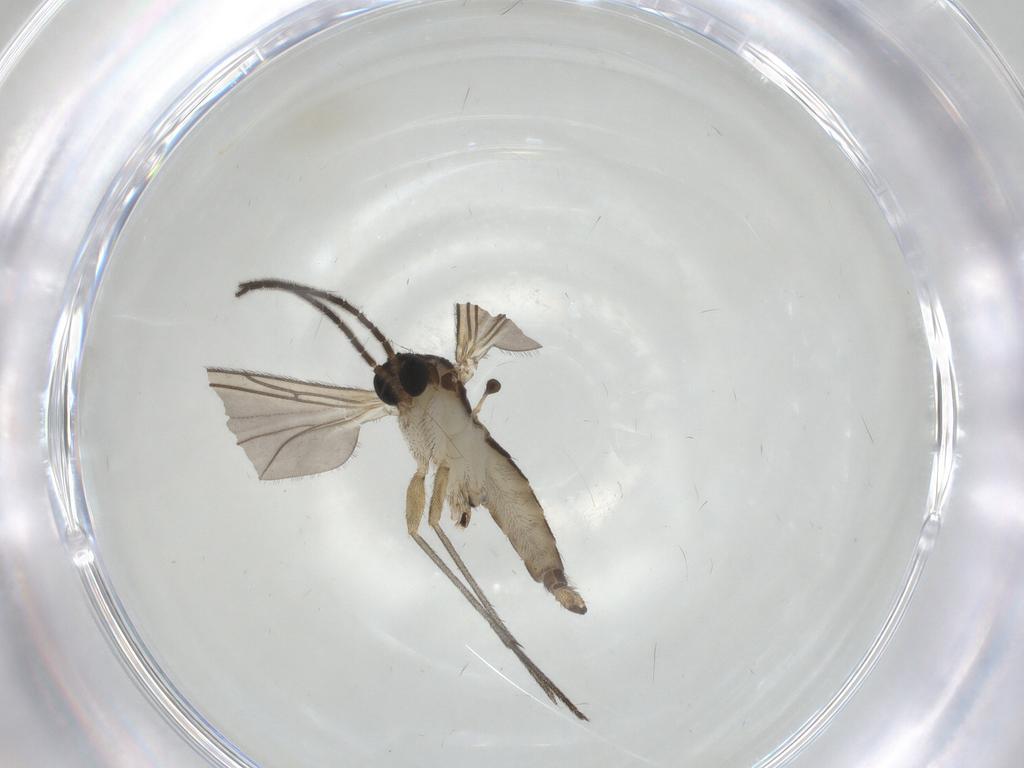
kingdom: Animalia
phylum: Arthropoda
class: Insecta
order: Diptera
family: Sciaridae
